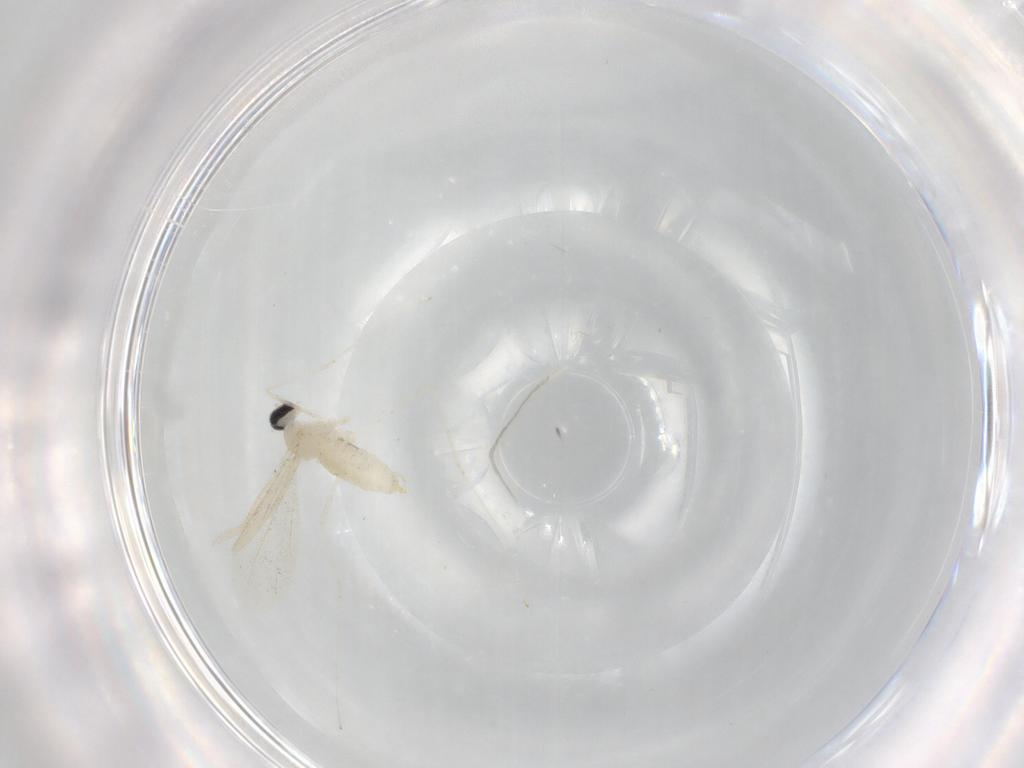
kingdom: Animalia
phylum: Arthropoda
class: Insecta
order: Diptera
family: Cecidomyiidae
